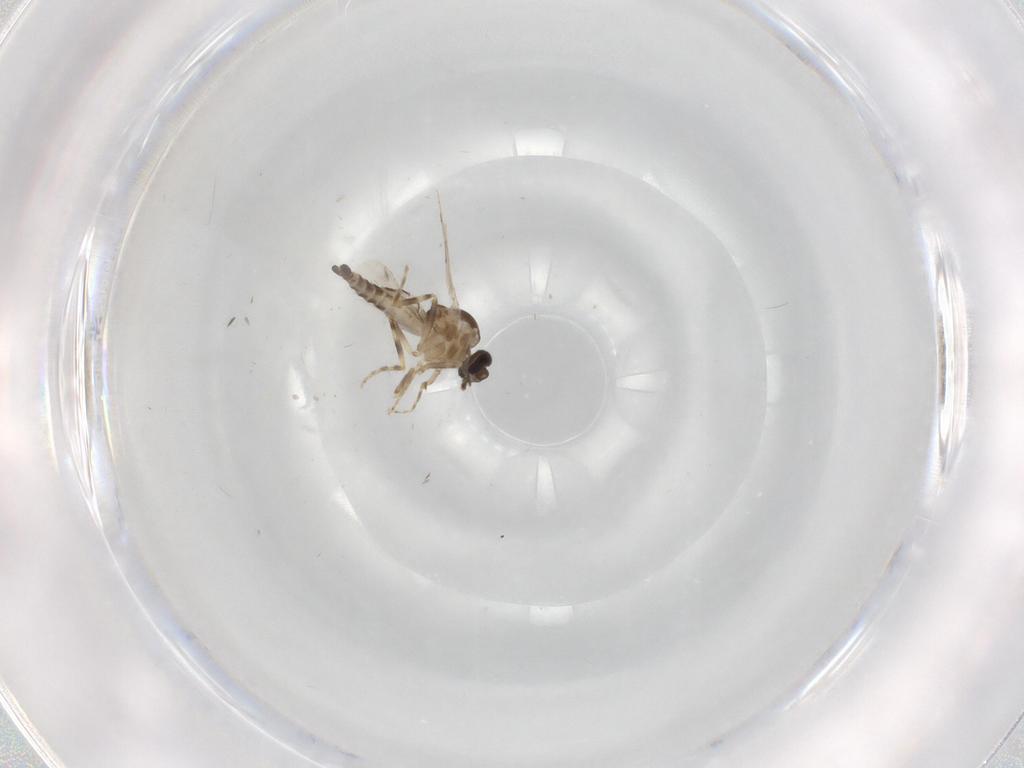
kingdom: Animalia
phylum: Arthropoda
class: Insecta
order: Diptera
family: Ceratopogonidae
